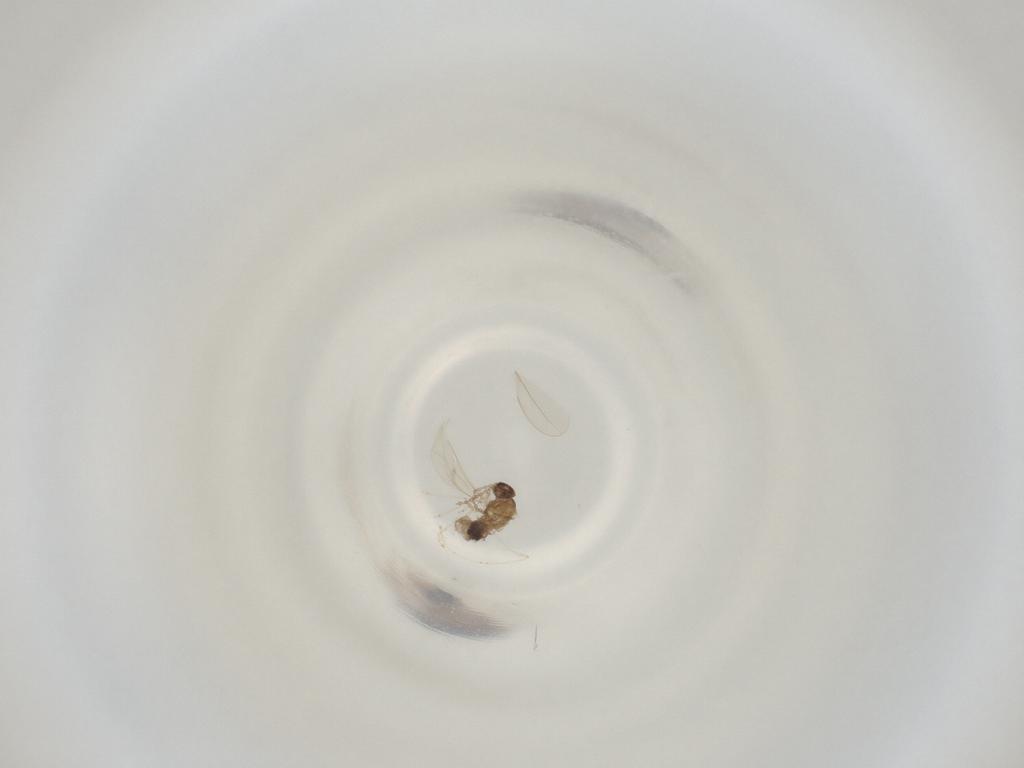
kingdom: Animalia
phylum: Arthropoda
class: Insecta
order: Diptera
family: Cecidomyiidae
